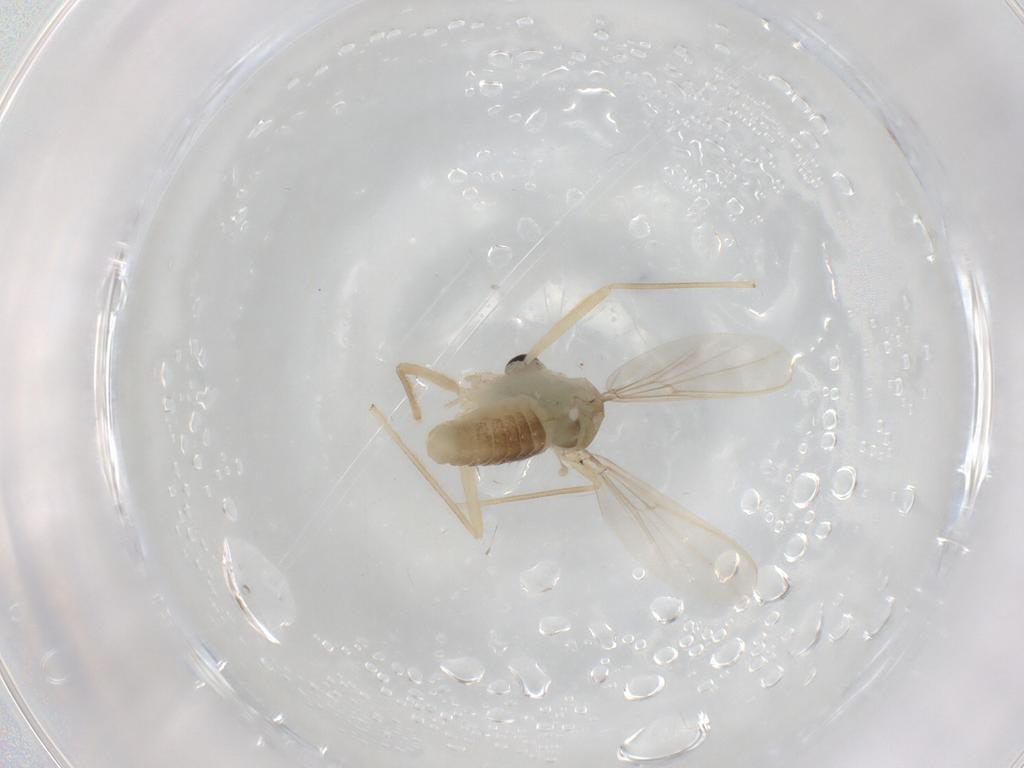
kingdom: Animalia
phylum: Arthropoda
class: Insecta
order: Diptera
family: Chironomidae
